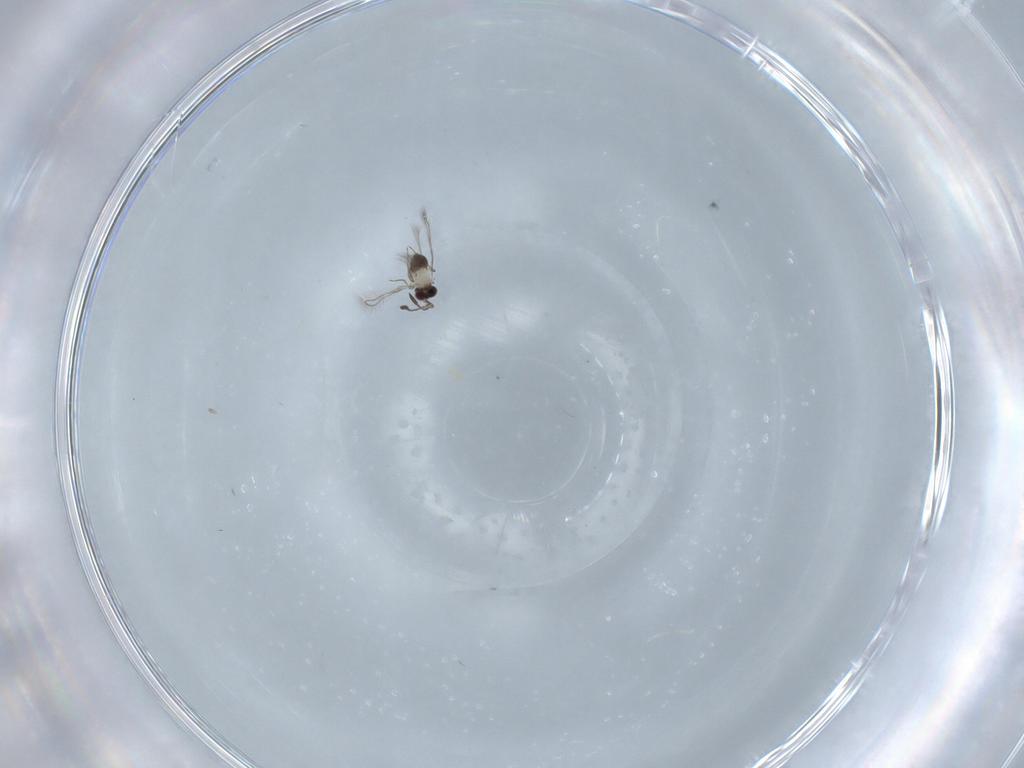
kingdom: Animalia
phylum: Arthropoda
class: Insecta
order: Hymenoptera
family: Mymaridae
